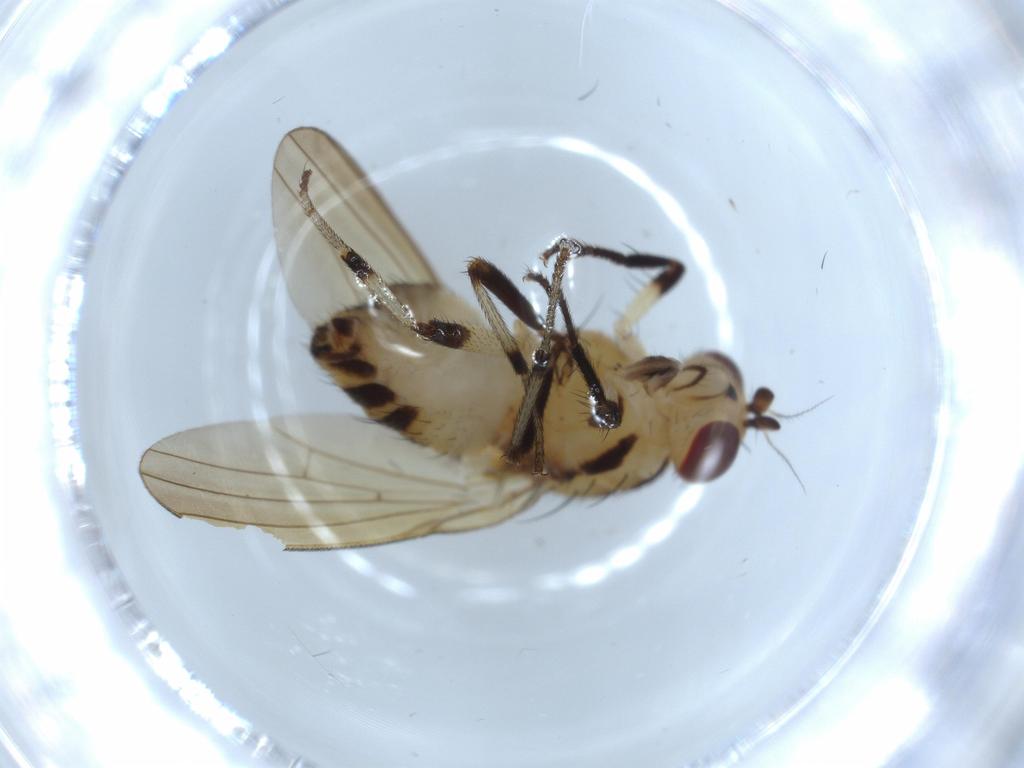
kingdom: Animalia
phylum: Arthropoda
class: Insecta
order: Diptera
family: Lauxaniidae
